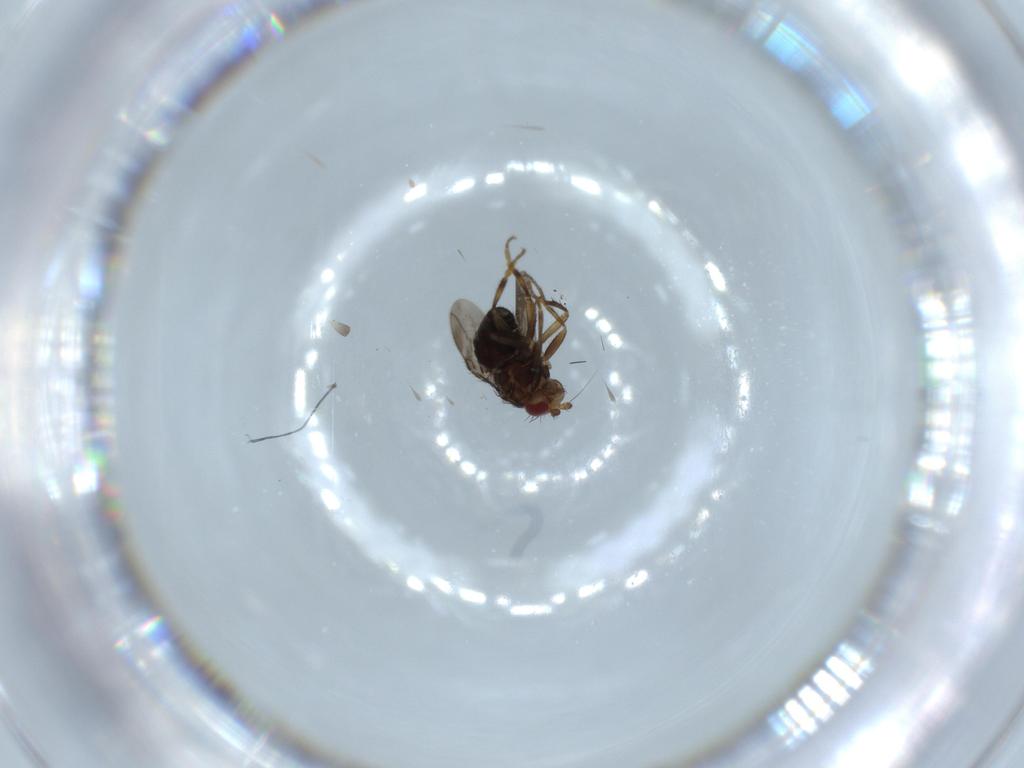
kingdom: Animalia
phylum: Arthropoda
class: Insecta
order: Diptera
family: Sphaeroceridae
